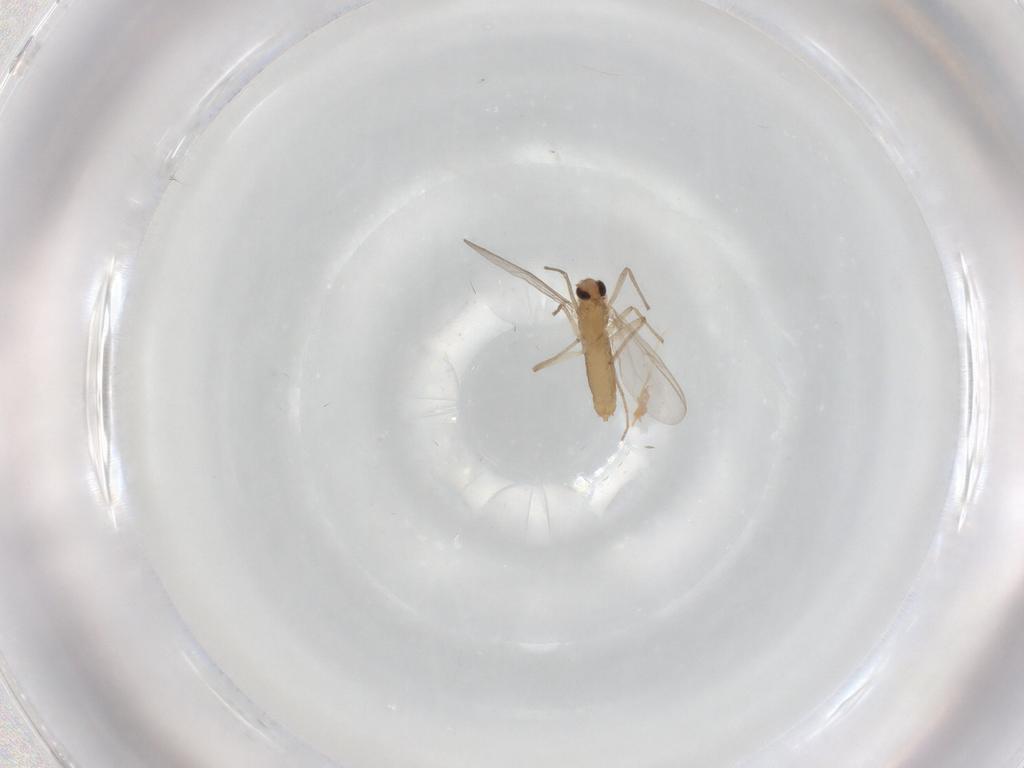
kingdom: Animalia
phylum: Arthropoda
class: Insecta
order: Diptera
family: Chironomidae
